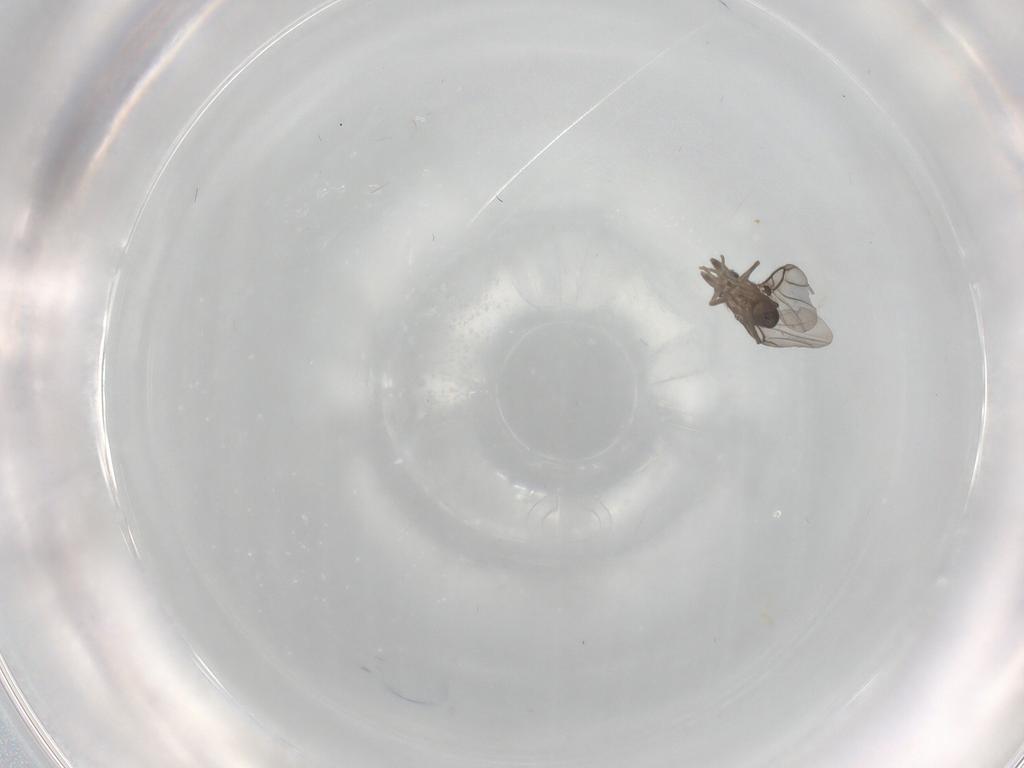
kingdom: Animalia
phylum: Arthropoda
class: Insecta
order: Diptera
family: Phoridae
